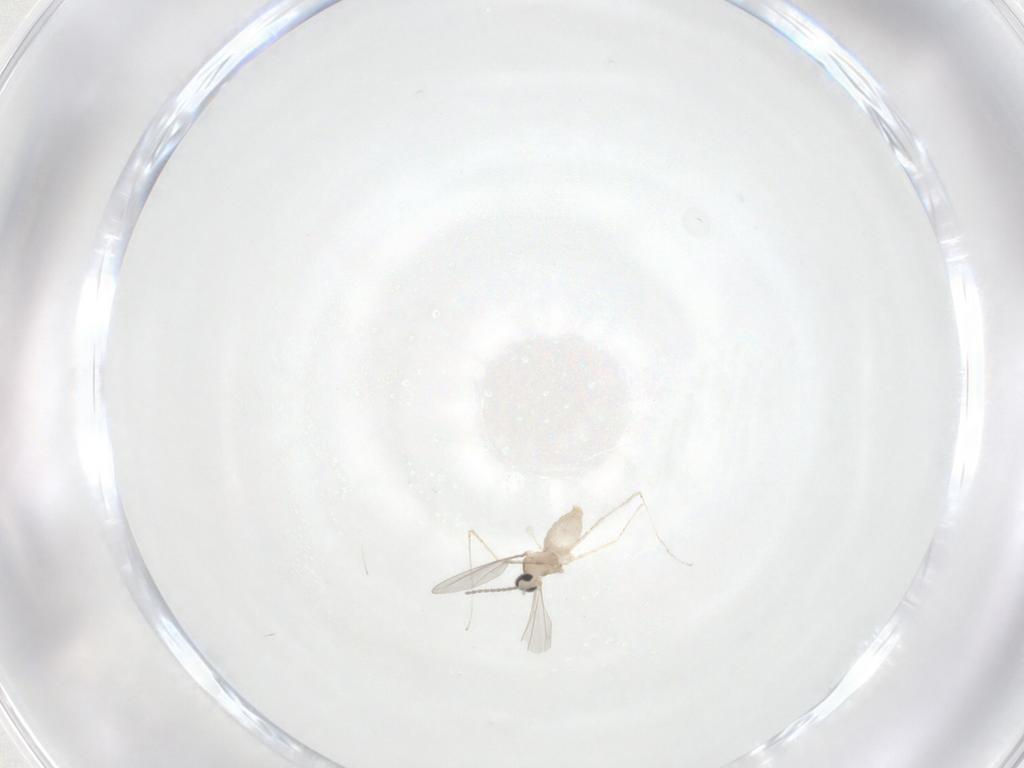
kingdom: Animalia
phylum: Arthropoda
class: Insecta
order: Diptera
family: Cecidomyiidae
